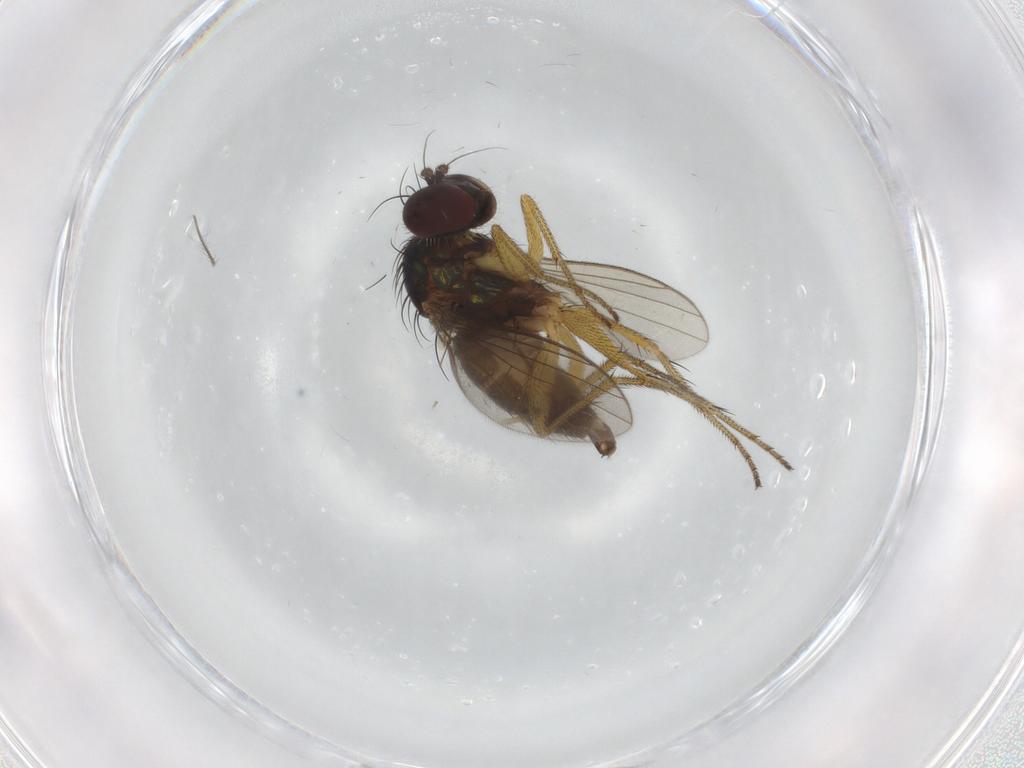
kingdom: Animalia
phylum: Arthropoda
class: Insecta
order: Diptera
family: Dolichopodidae
